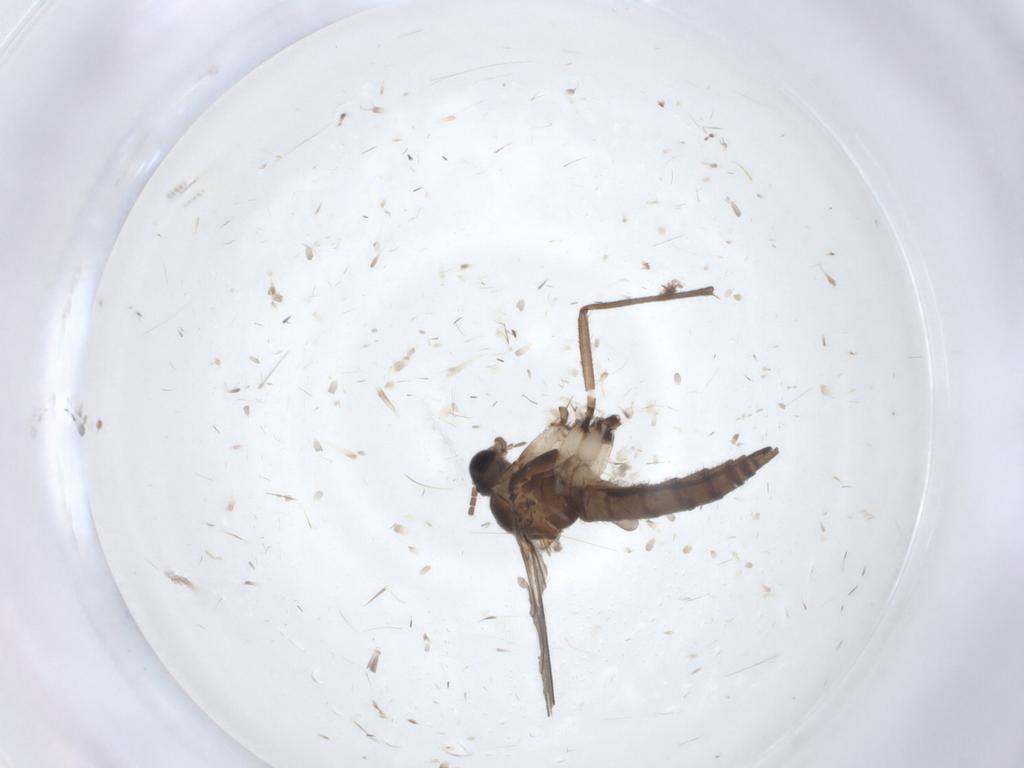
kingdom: Animalia
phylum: Arthropoda
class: Insecta
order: Diptera
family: Sciaridae
